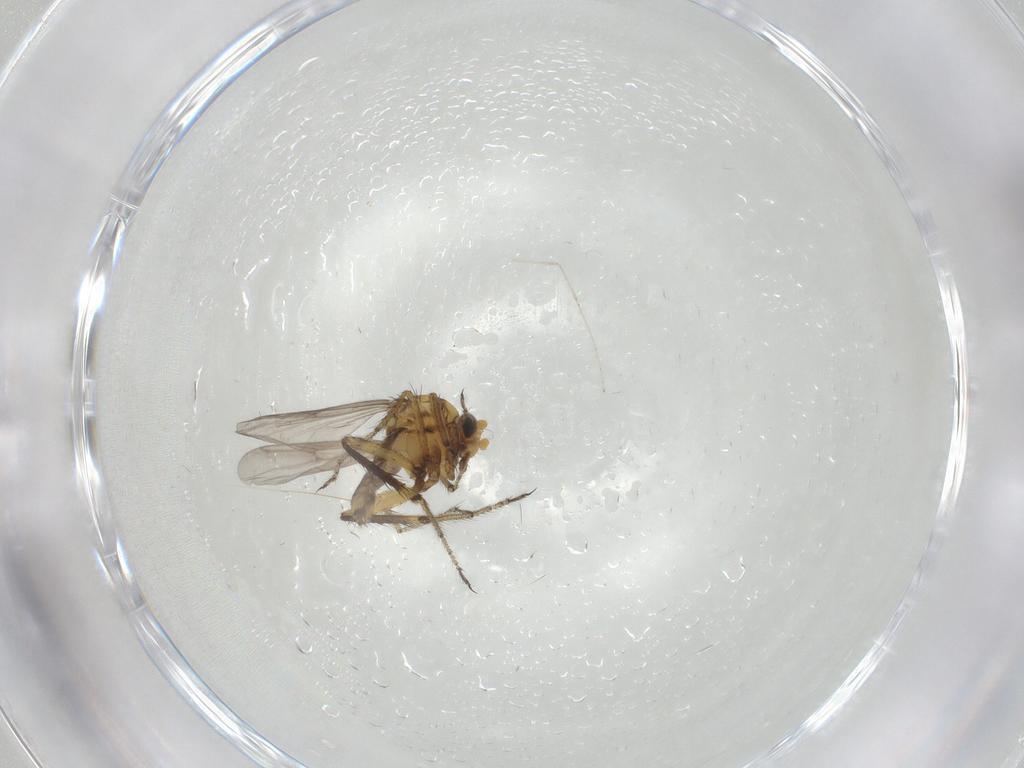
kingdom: Animalia
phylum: Arthropoda
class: Insecta
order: Diptera
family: Ceratopogonidae
